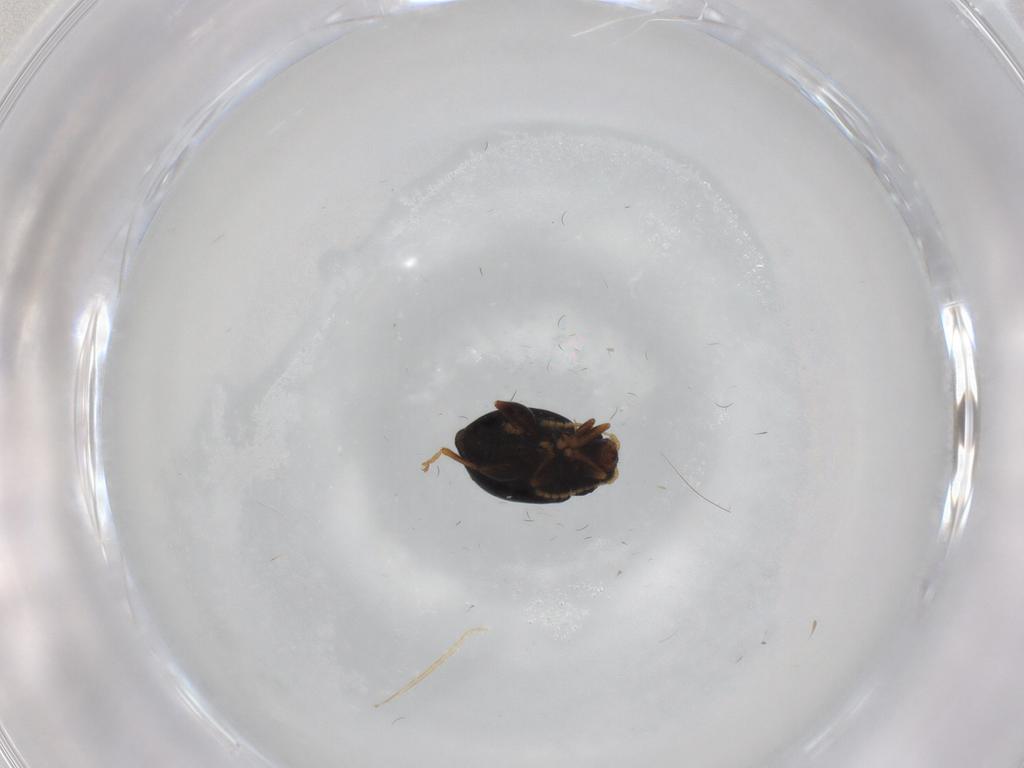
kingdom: Animalia
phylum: Arthropoda
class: Insecta
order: Coleoptera
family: Chrysomelidae
